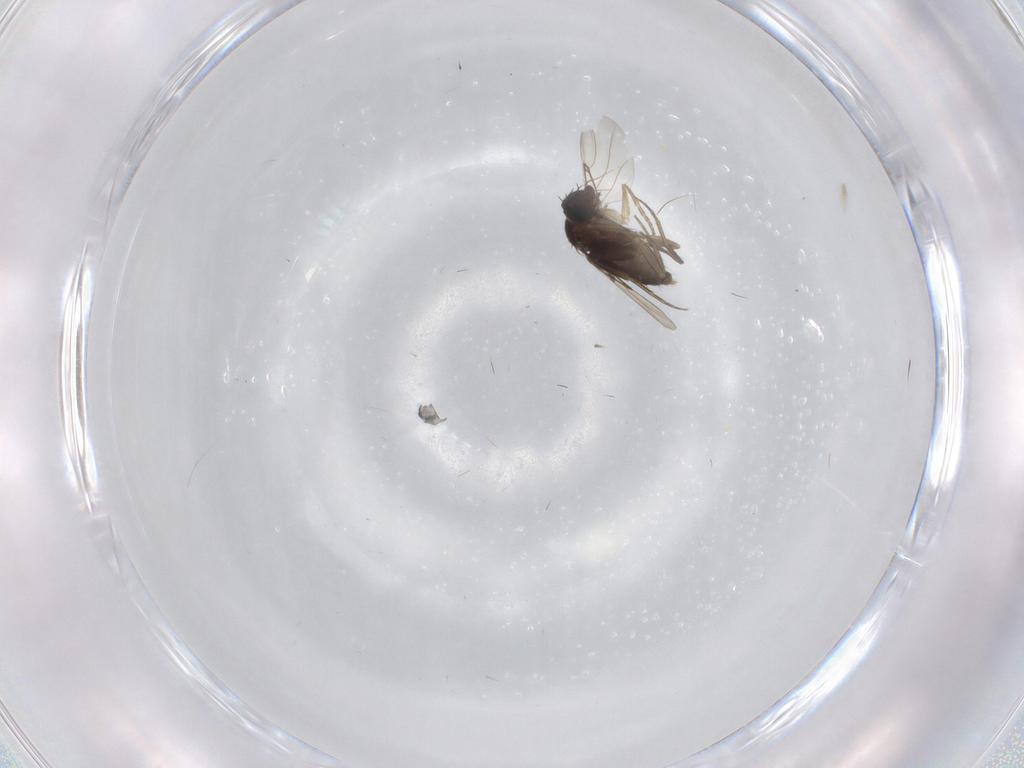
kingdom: Animalia
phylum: Arthropoda
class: Insecta
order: Diptera
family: Phoridae
